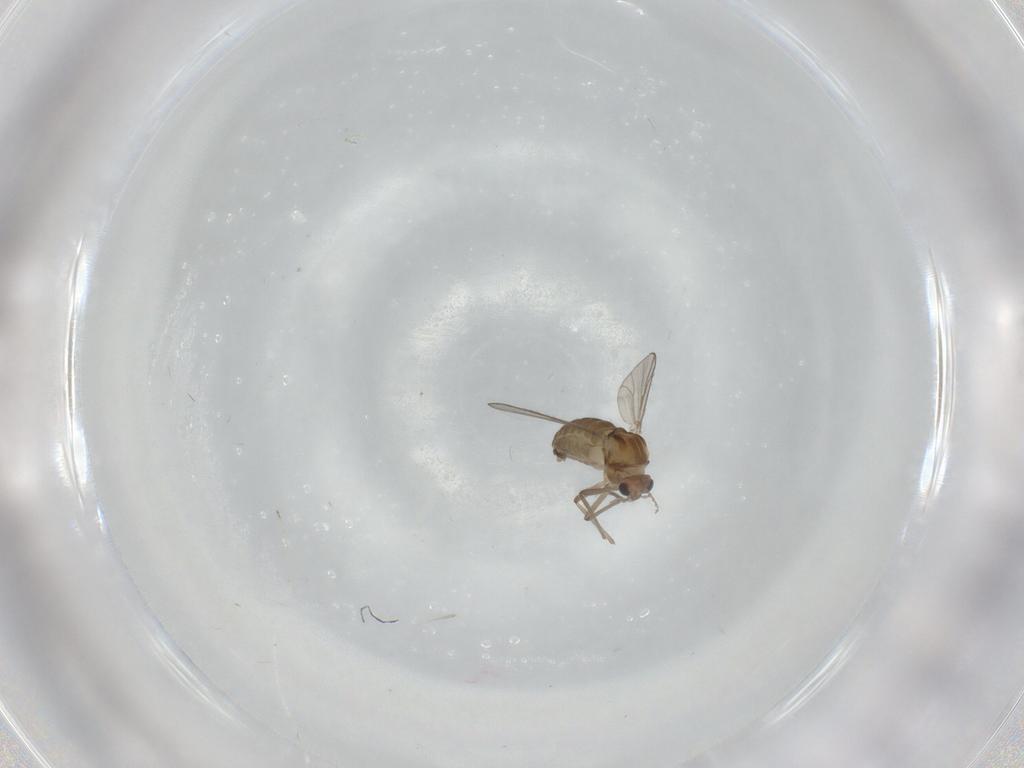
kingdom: Animalia
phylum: Arthropoda
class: Insecta
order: Diptera
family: Chironomidae
